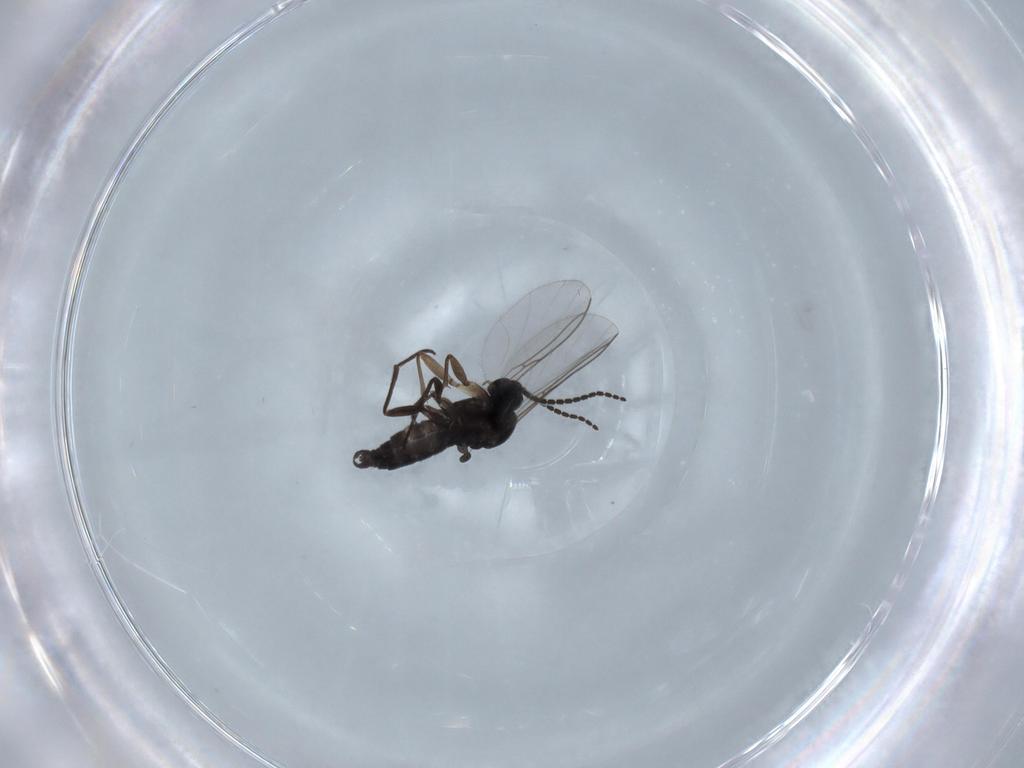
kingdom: Animalia
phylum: Arthropoda
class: Insecta
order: Diptera
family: Sciaridae
